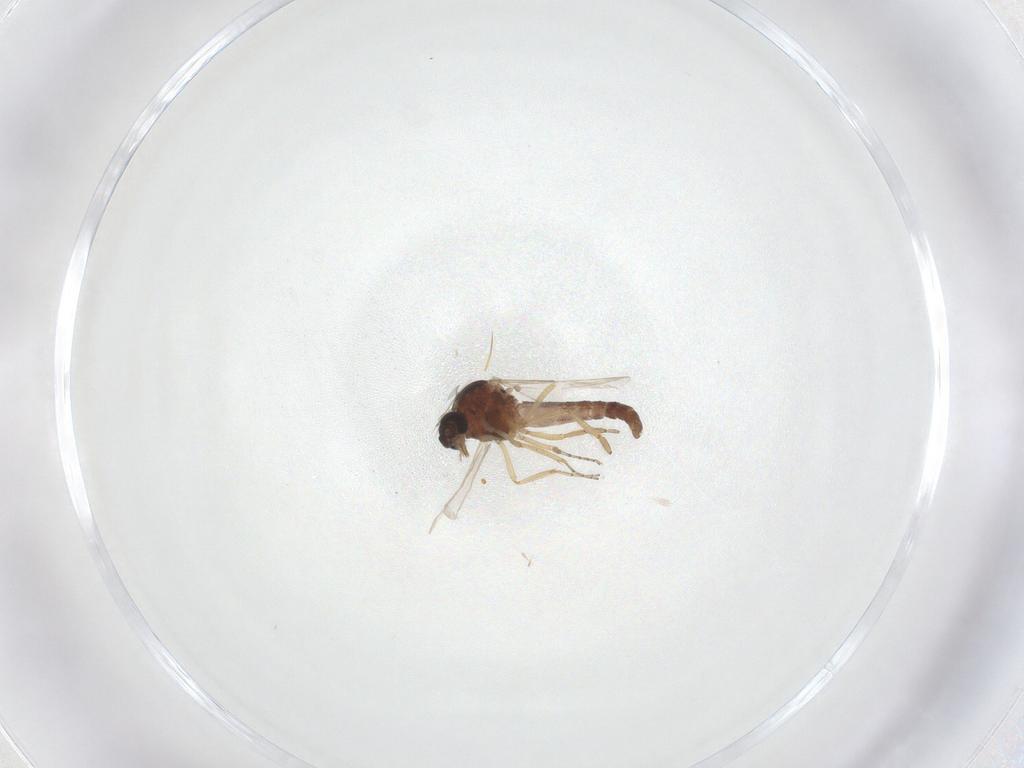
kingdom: Animalia
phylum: Arthropoda
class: Insecta
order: Diptera
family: Ceratopogonidae
